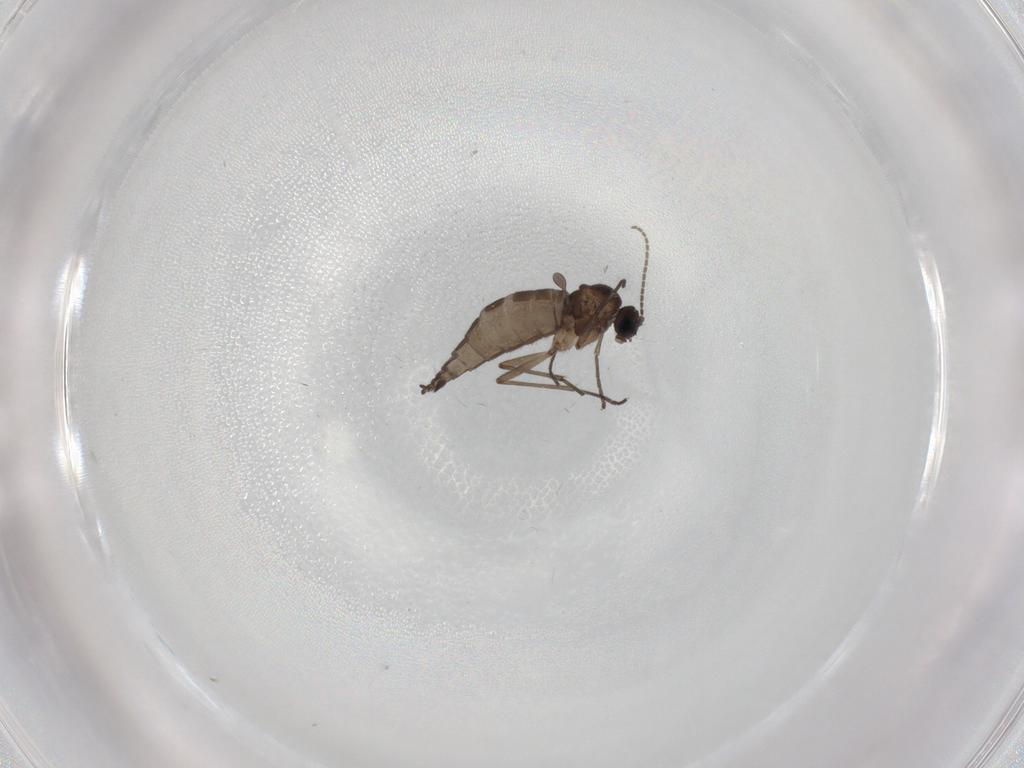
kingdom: Animalia
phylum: Arthropoda
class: Insecta
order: Diptera
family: Sciaridae
